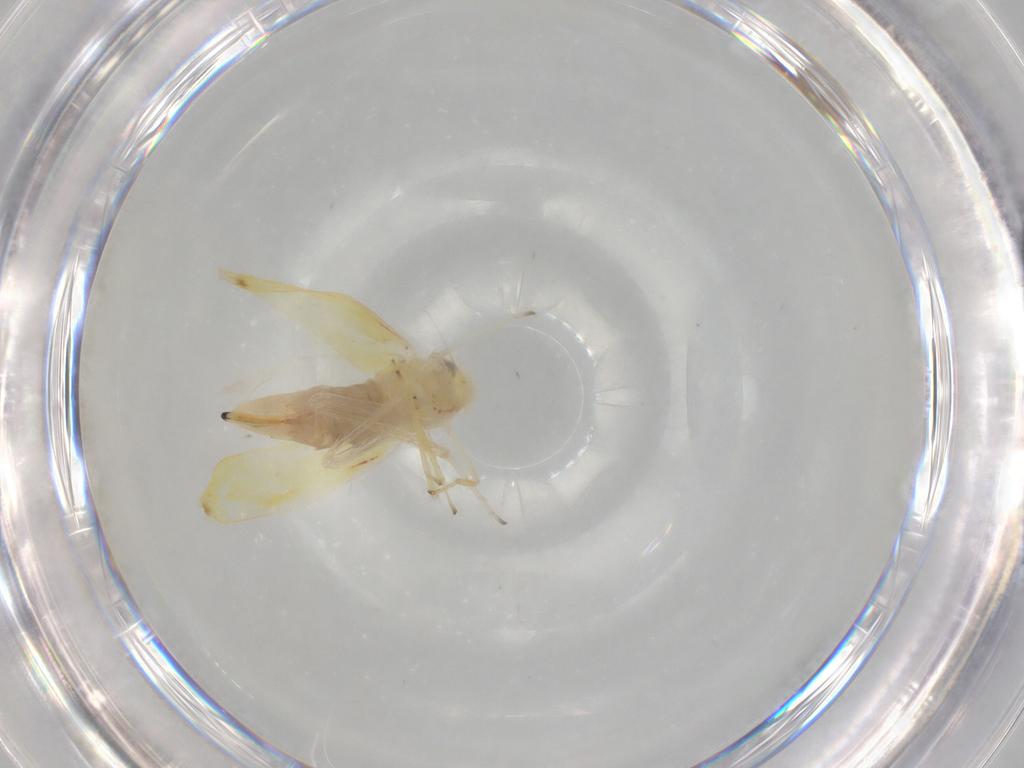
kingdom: Animalia
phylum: Arthropoda
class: Insecta
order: Hemiptera
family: Cicadellidae
